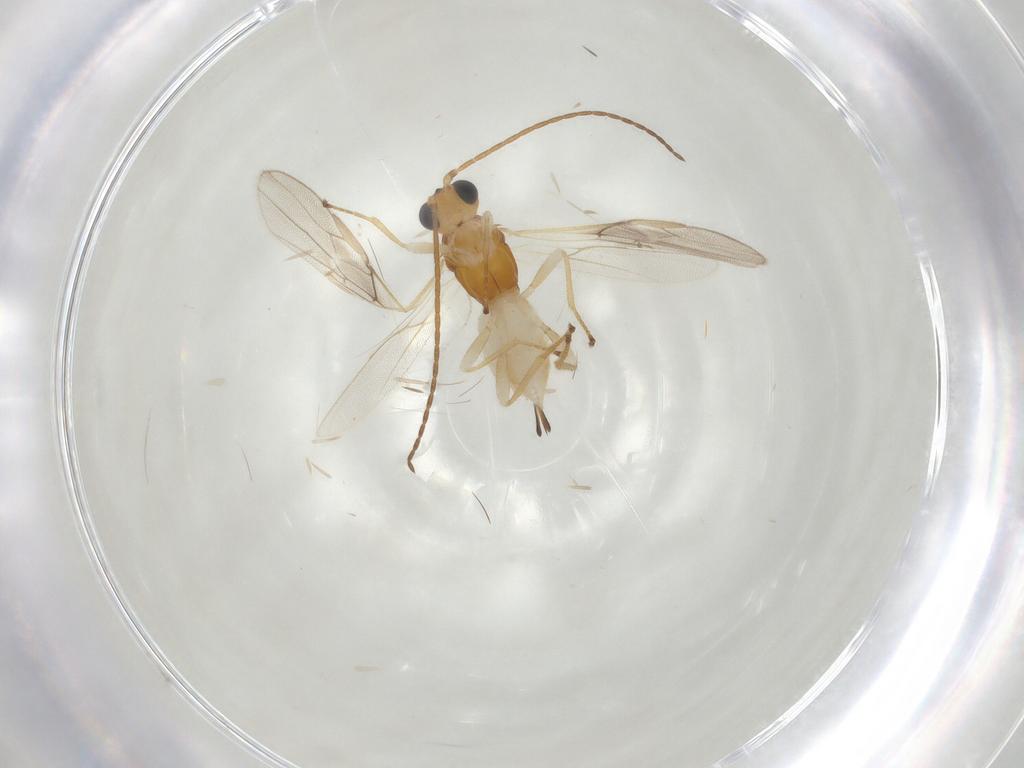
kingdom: Animalia
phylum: Arthropoda
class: Insecta
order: Hymenoptera
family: Braconidae
